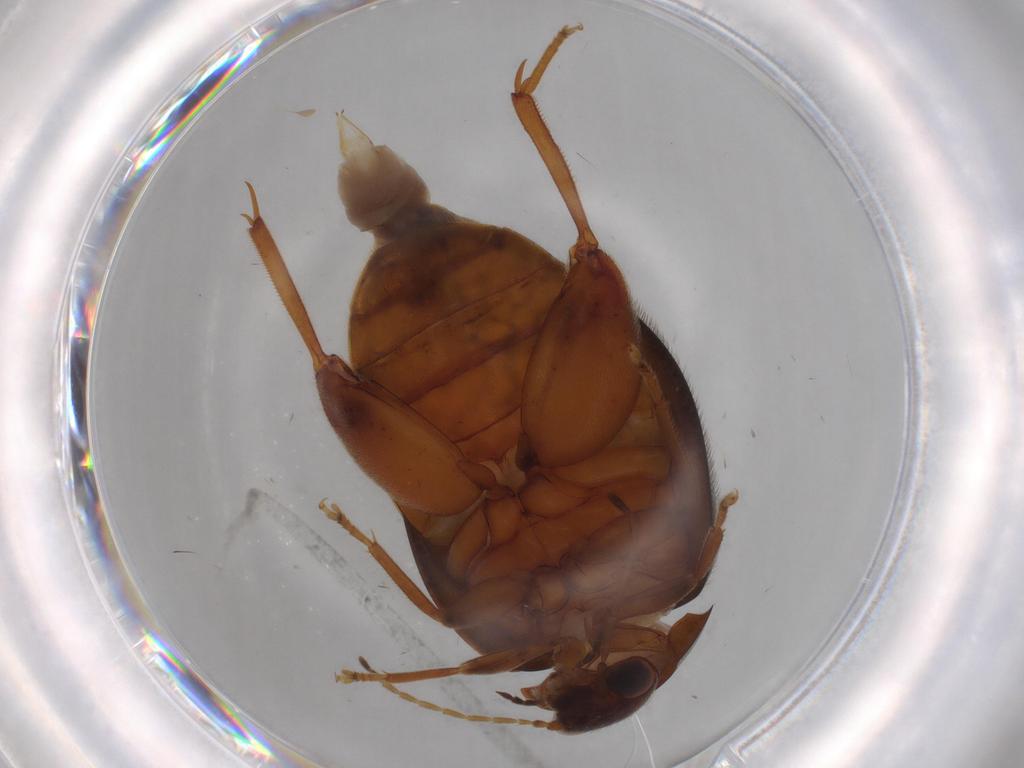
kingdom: Animalia
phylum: Arthropoda
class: Insecta
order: Coleoptera
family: Scirtidae
